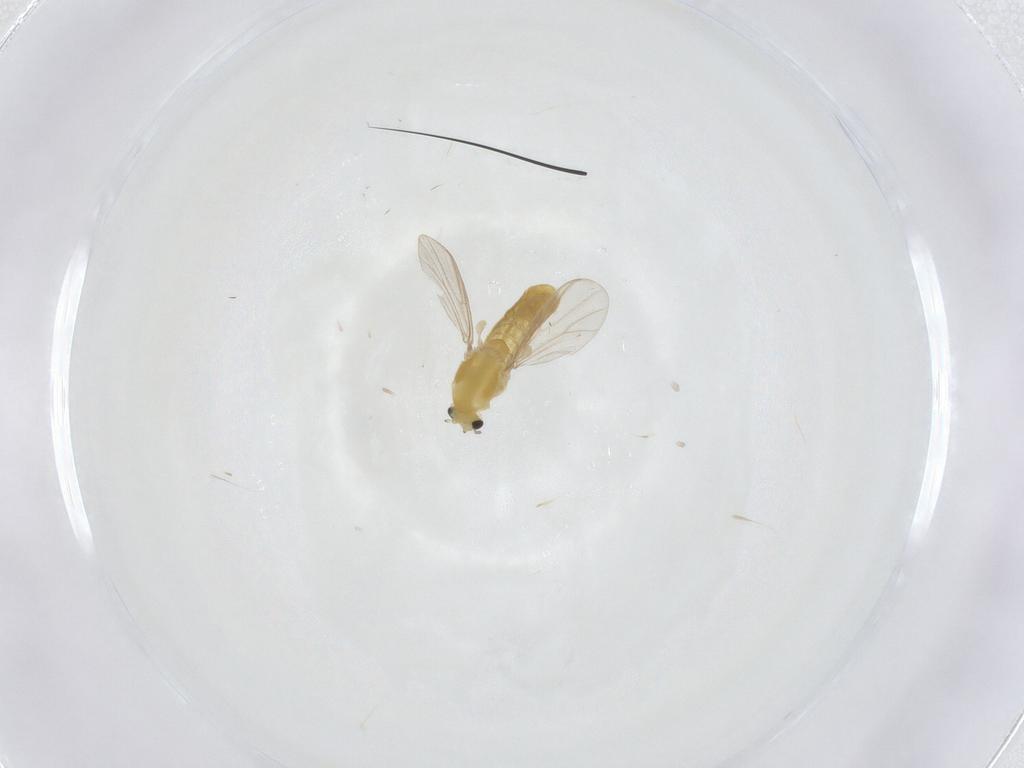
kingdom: Animalia
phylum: Arthropoda
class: Insecta
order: Diptera
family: Chironomidae
